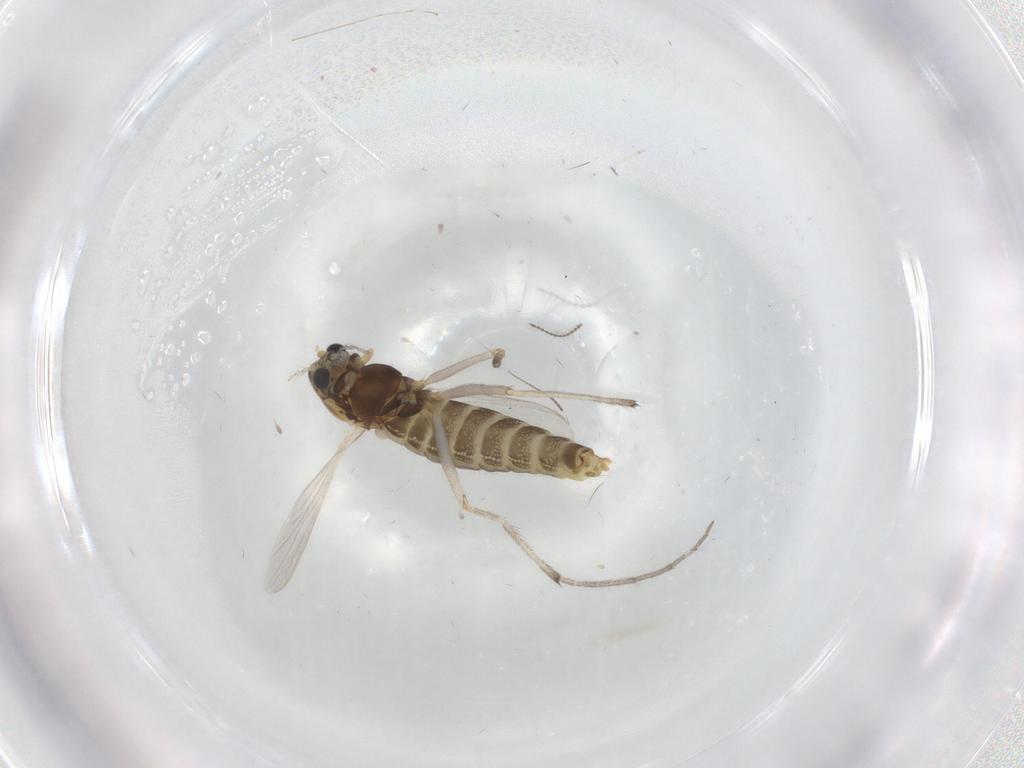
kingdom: Animalia
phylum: Arthropoda
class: Insecta
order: Diptera
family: Chironomidae
